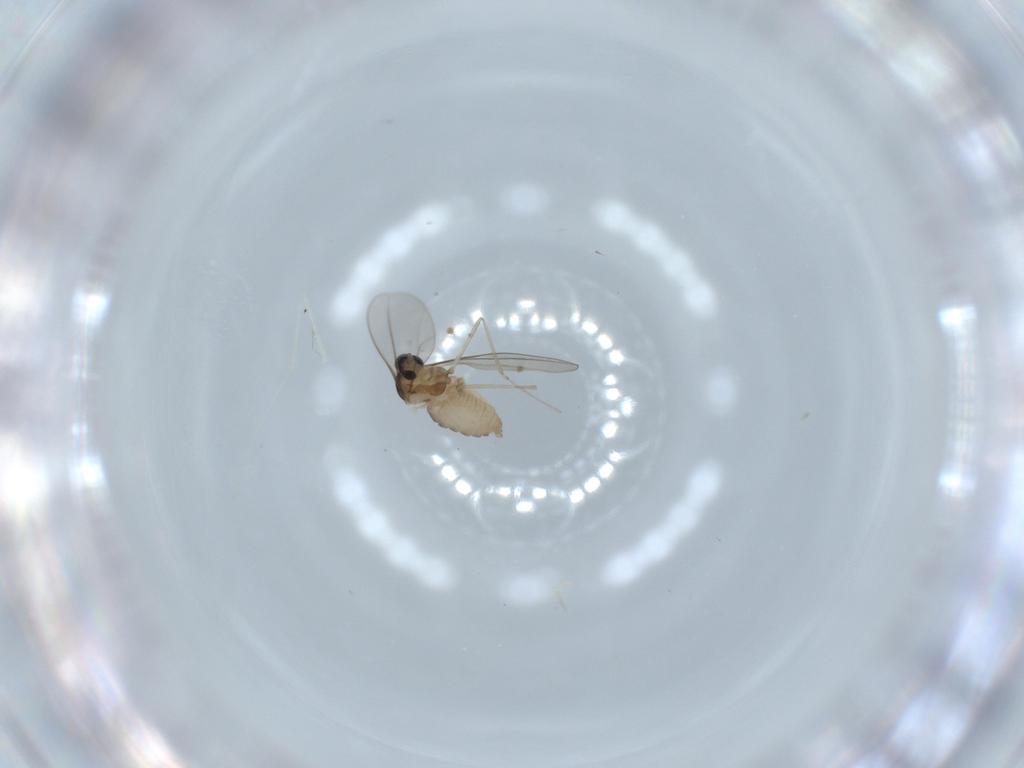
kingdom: Animalia
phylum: Arthropoda
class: Insecta
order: Diptera
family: Cecidomyiidae
